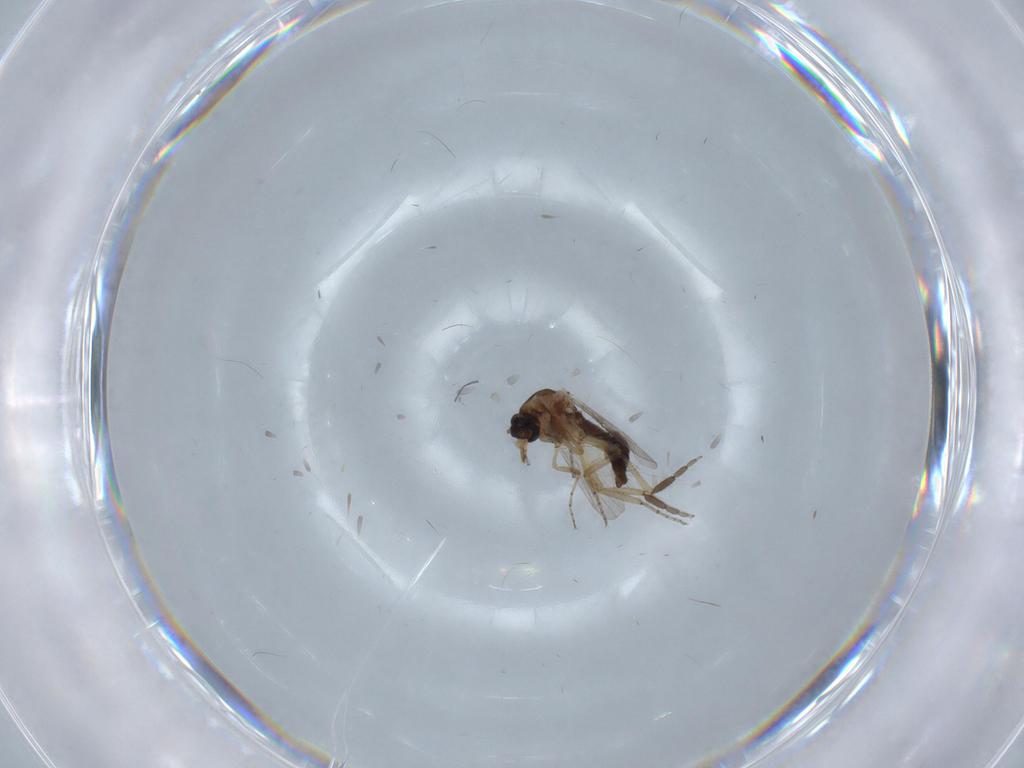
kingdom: Animalia
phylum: Arthropoda
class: Insecta
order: Diptera
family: Ceratopogonidae
